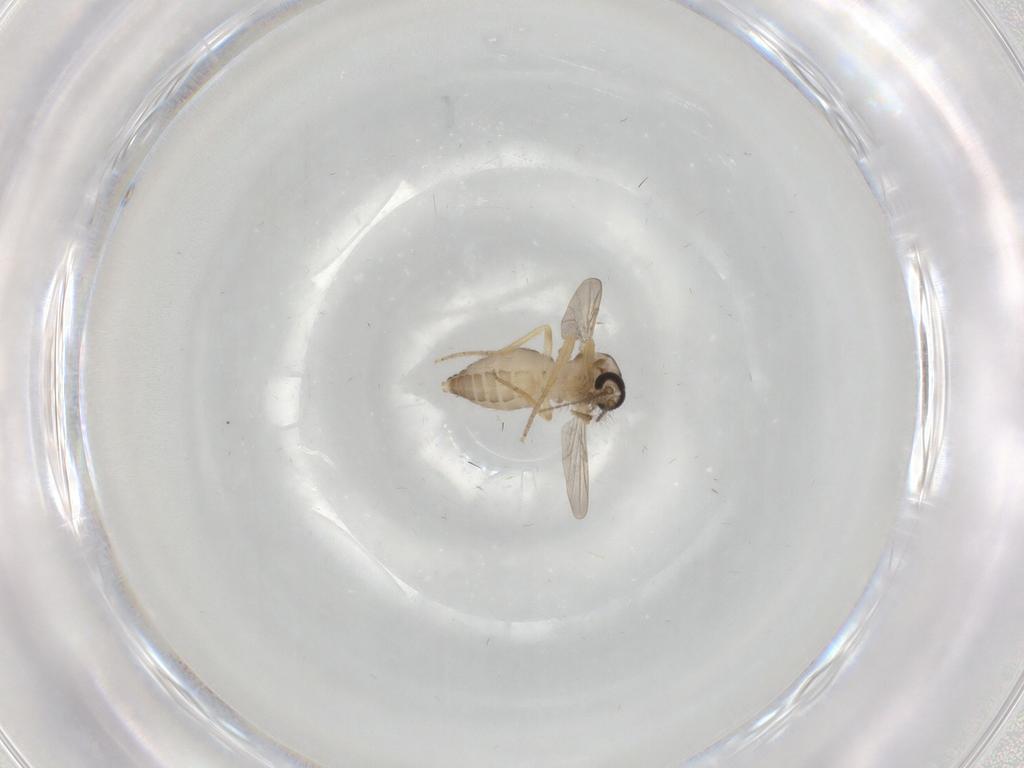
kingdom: Animalia
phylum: Arthropoda
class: Insecta
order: Diptera
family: Ceratopogonidae
